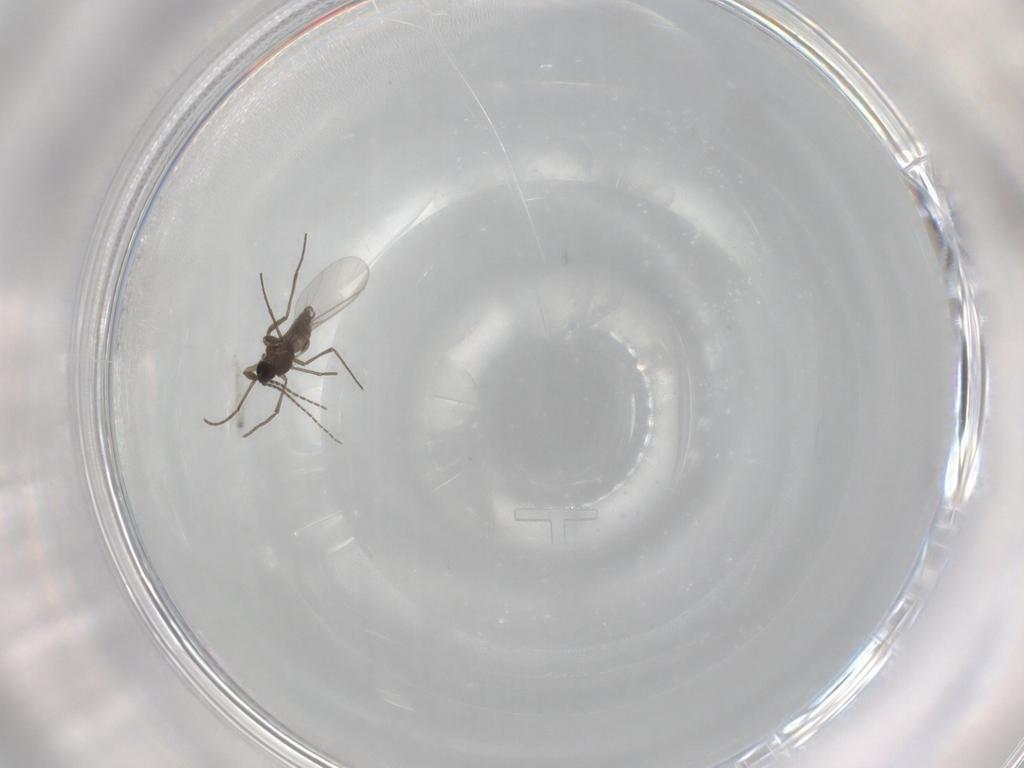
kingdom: Animalia
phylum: Arthropoda
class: Insecta
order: Diptera
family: Sciaridae
